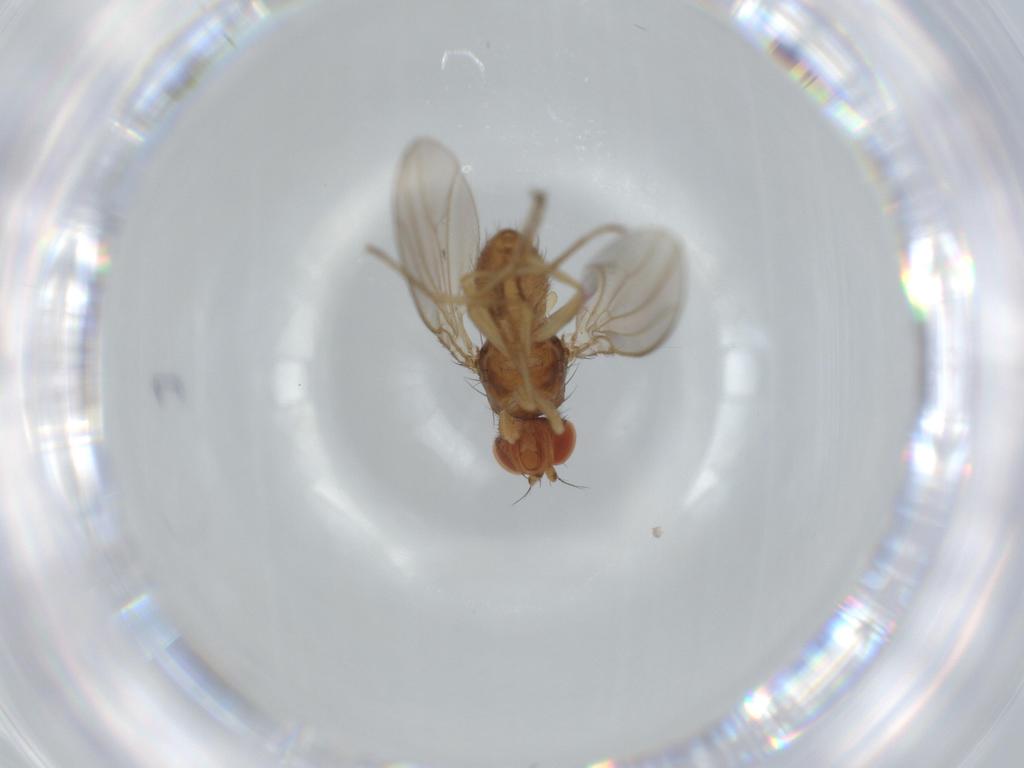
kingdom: Animalia
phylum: Arthropoda
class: Insecta
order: Diptera
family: Drosophilidae
